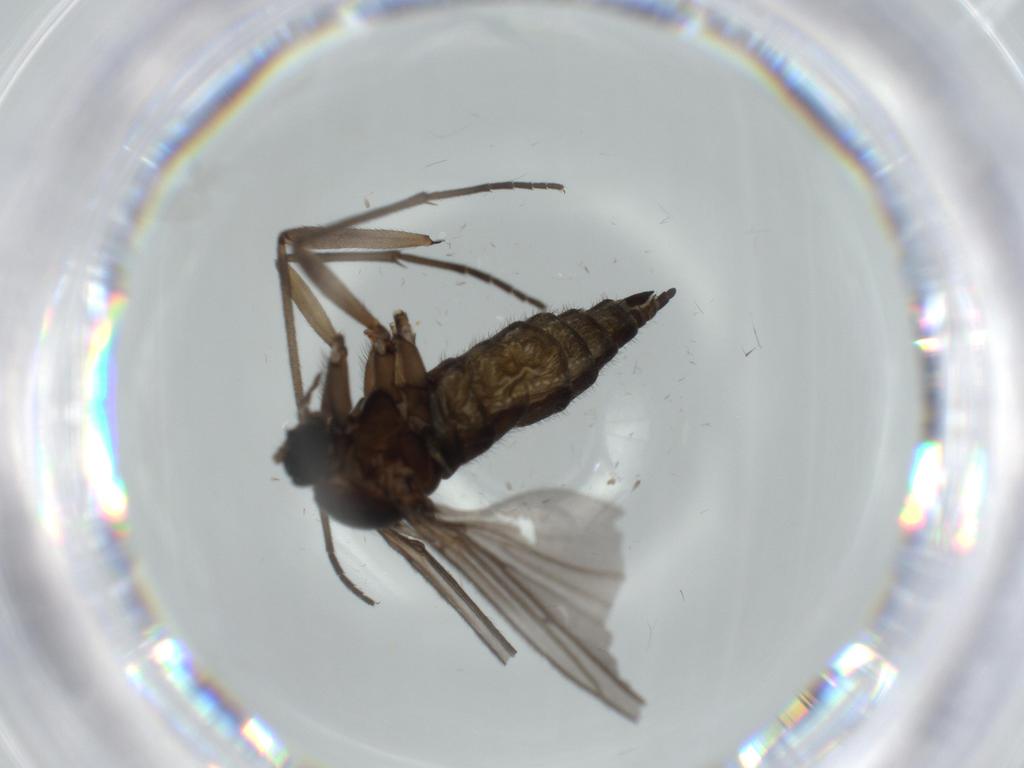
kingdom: Animalia
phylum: Arthropoda
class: Insecta
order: Diptera
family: Sciaridae
